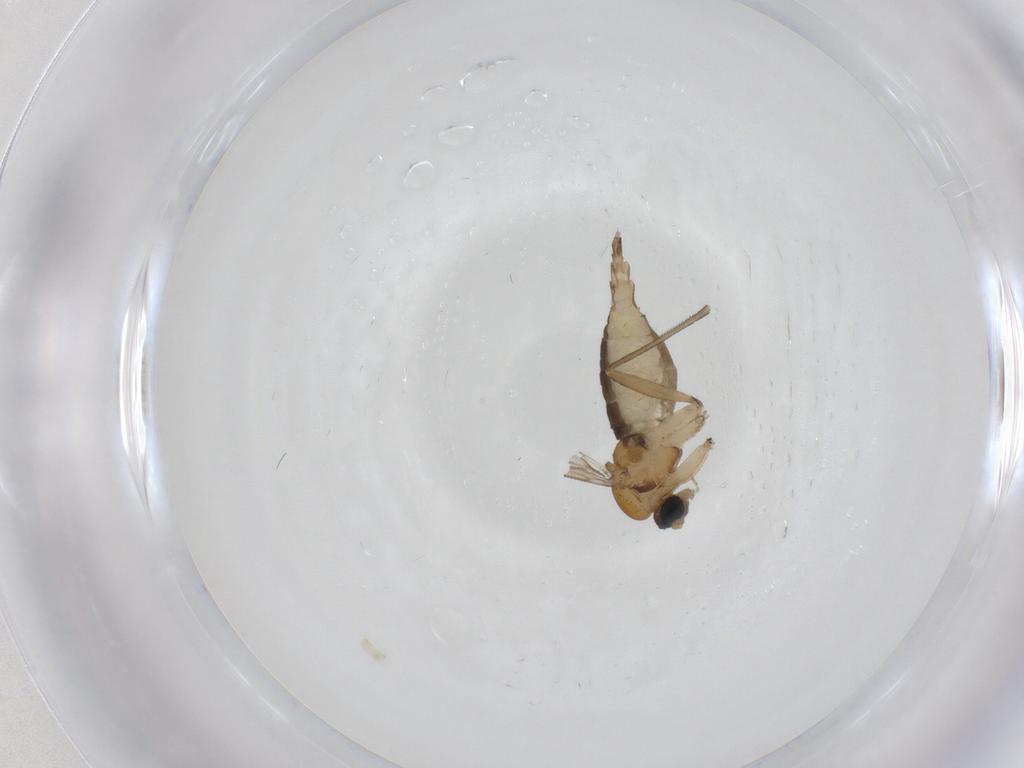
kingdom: Animalia
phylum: Arthropoda
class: Insecta
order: Diptera
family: Sciaridae
